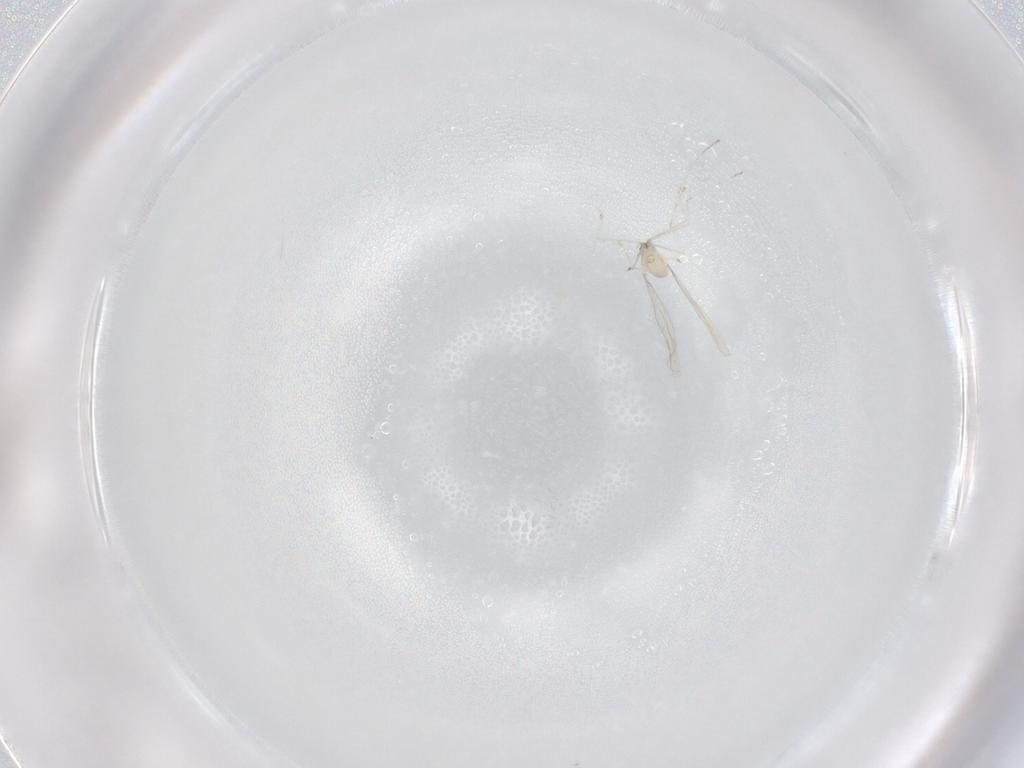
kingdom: Animalia
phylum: Arthropoda
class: Insecta
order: Diptera
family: Cecidomyiidae
